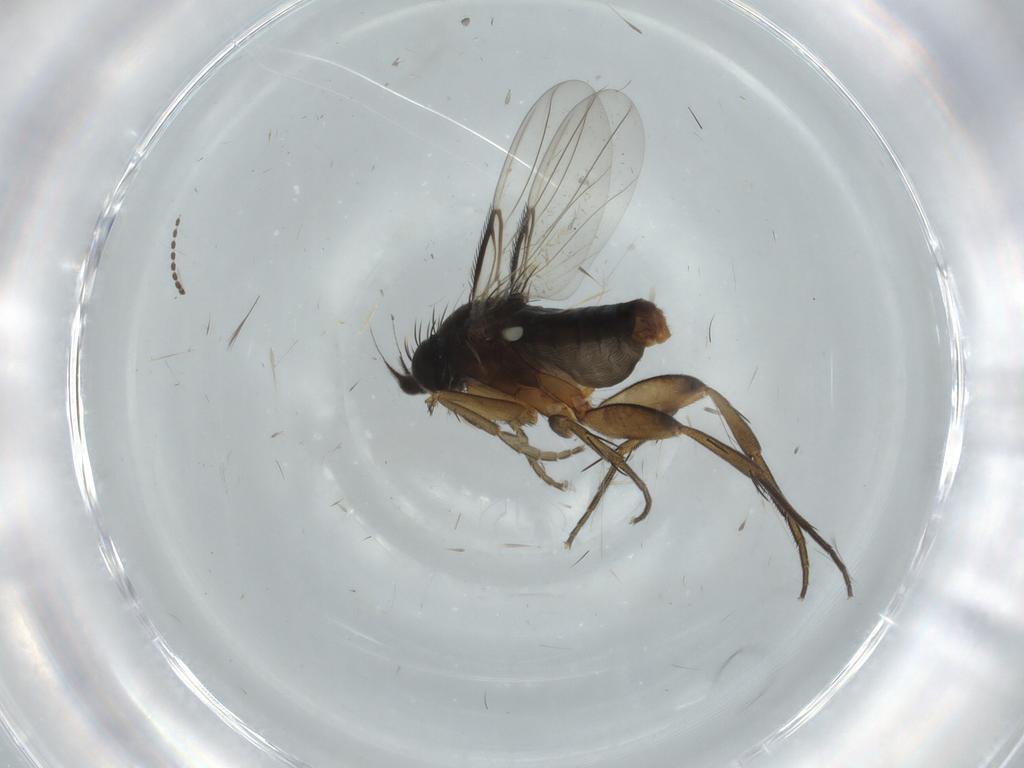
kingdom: Animalia
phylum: Arthropoda
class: Insecta
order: Diptera
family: Phoridae
